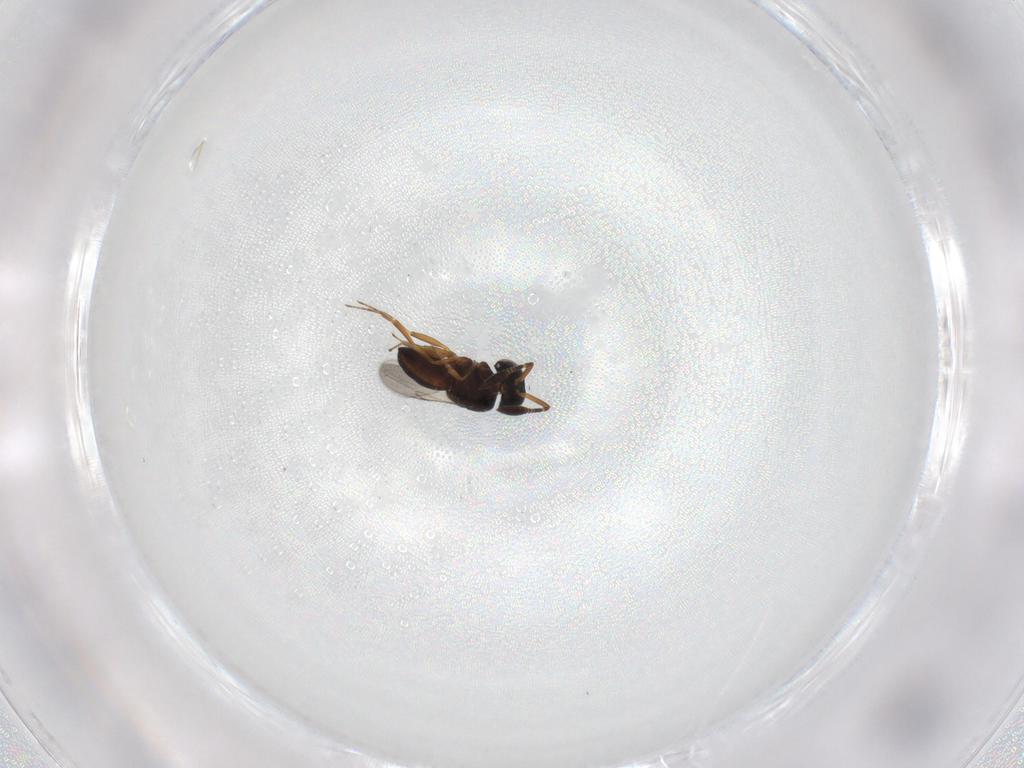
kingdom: Animalia
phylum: Arthropoda
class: Insecta
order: Hymenoptera
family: Scelionidae
